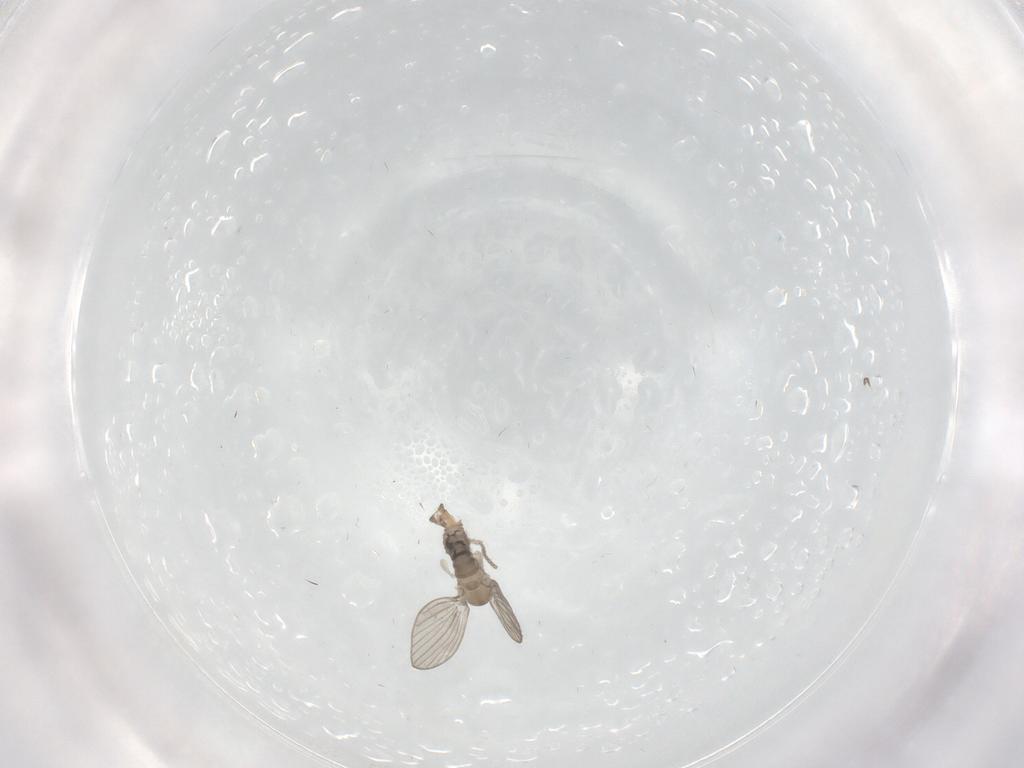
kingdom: Animalia
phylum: Arthropoda
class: Insecta
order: Diptera
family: Psychodidae
